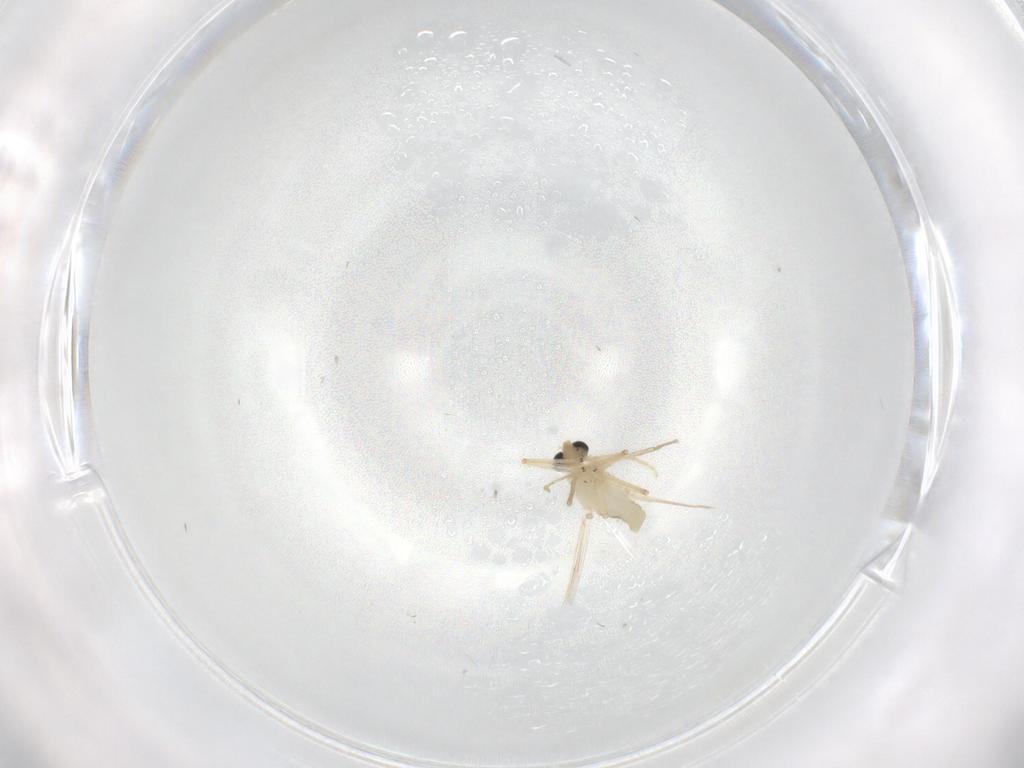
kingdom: Animalia
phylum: Arthropoda
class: Insecta
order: Diptera
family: Chironomidae
